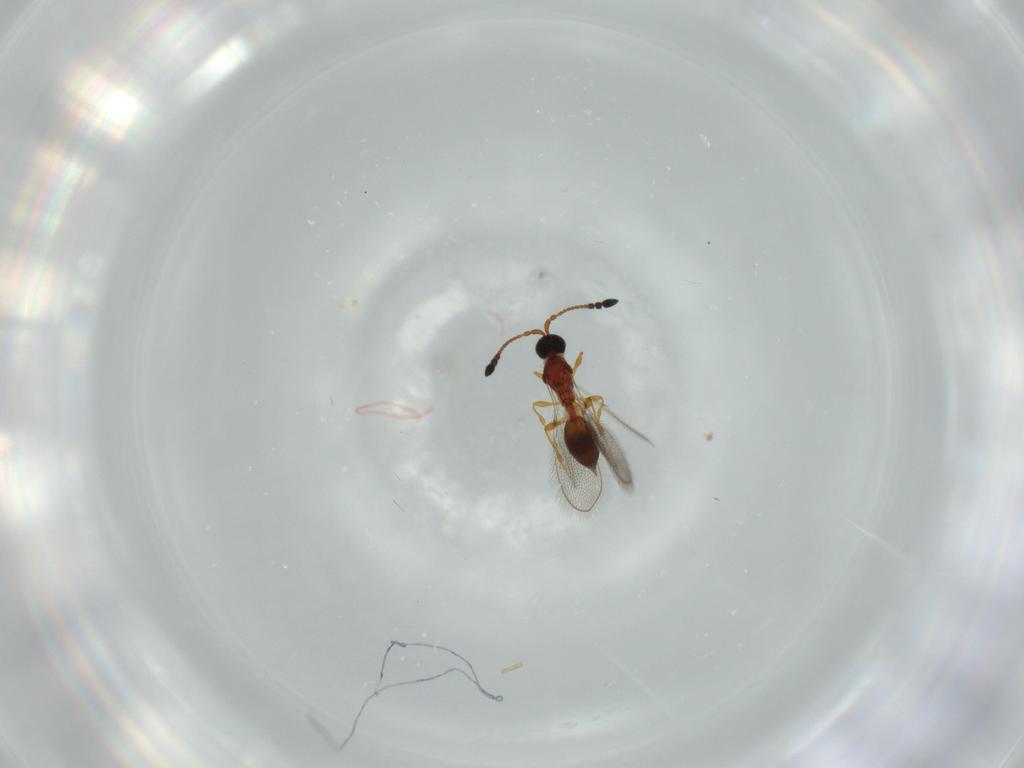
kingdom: Animalia
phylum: Arthropoda
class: Insecta
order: Hymenoptera
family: Diapriidae
